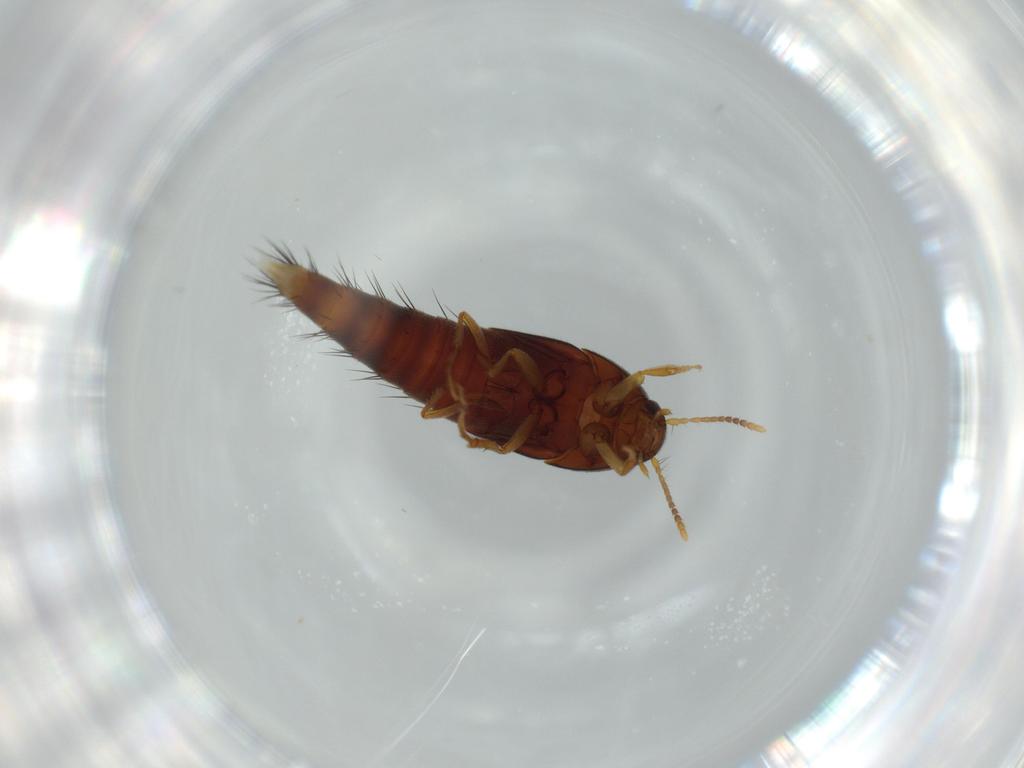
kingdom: Animalia
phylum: Arthropoda
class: Insecta
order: Coleoptera
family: Staphylinidae
